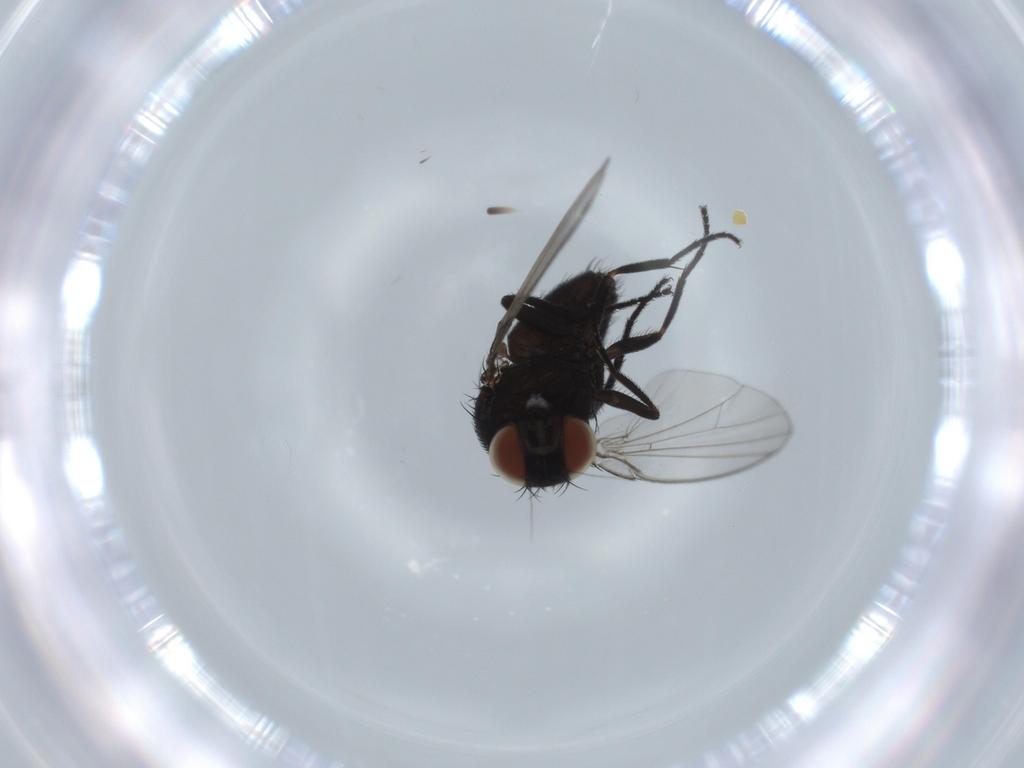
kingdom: Animalia
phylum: Arthropoda
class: Insecta
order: Diptera
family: Milichiidae
